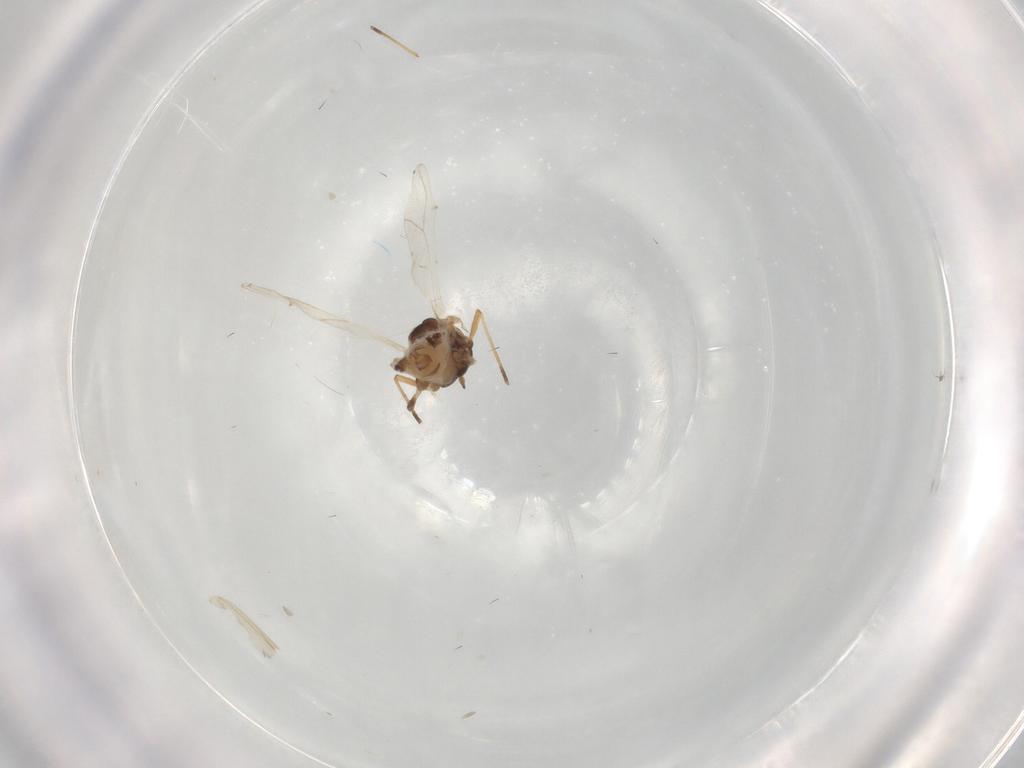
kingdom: Animalia
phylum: Arthropoda
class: Insecta
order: Hemiptera
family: Aphididae
